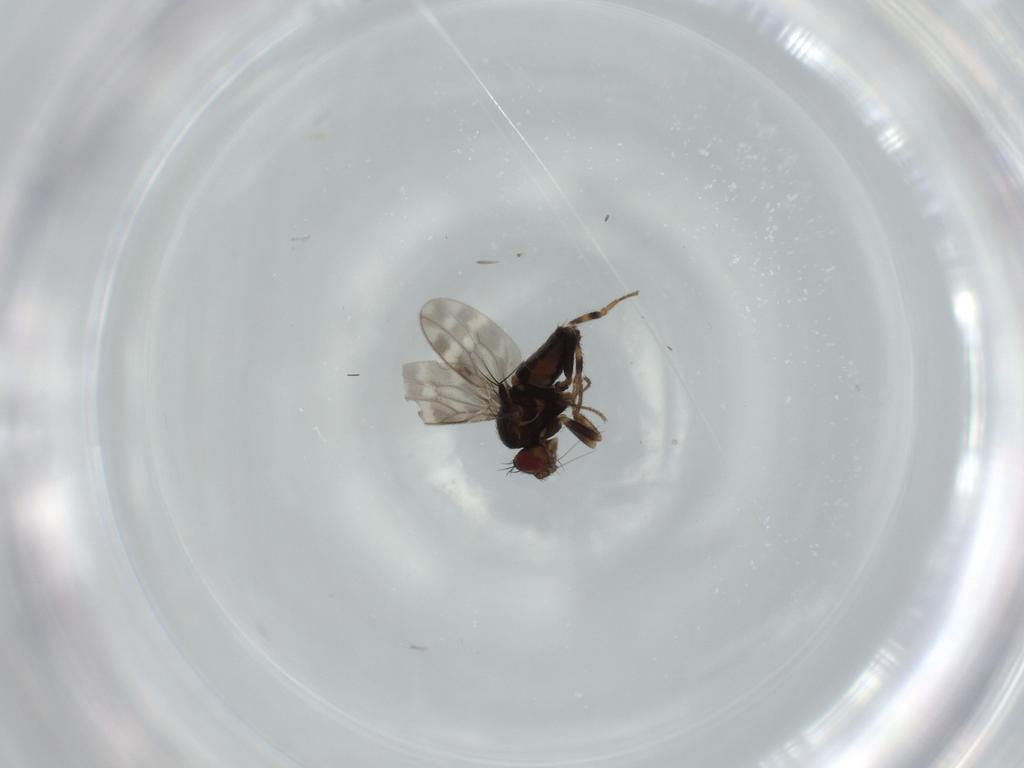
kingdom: Animalia
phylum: Arthropoda
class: Insecta
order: Diptera
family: Sphaeroceridae
